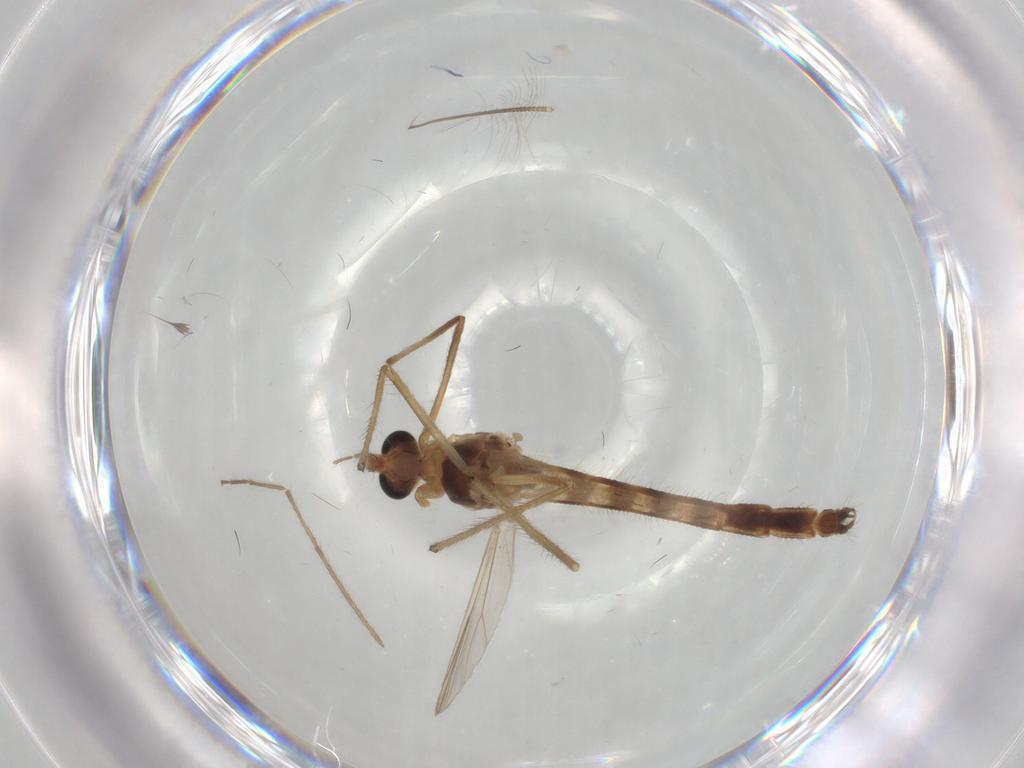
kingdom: Animalia
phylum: Arthropoda
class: Insecta
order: Diptera
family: Chironomidae
